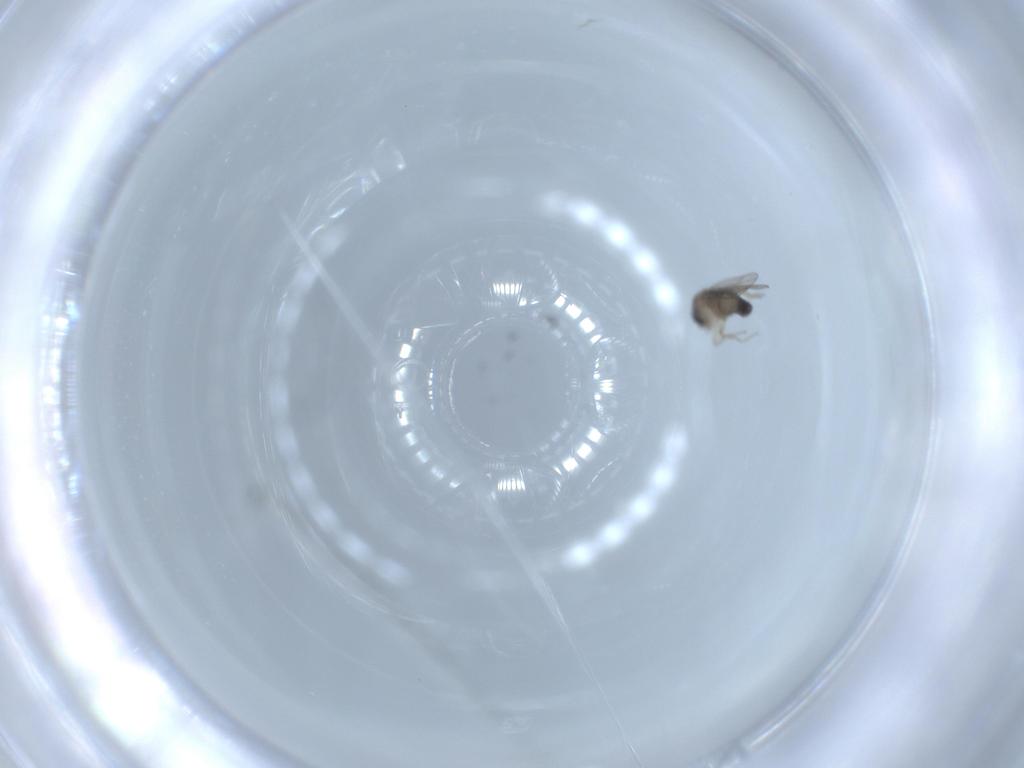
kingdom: Animalia
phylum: Arthropoda
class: Insecta
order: Diptera
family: Phoridae
